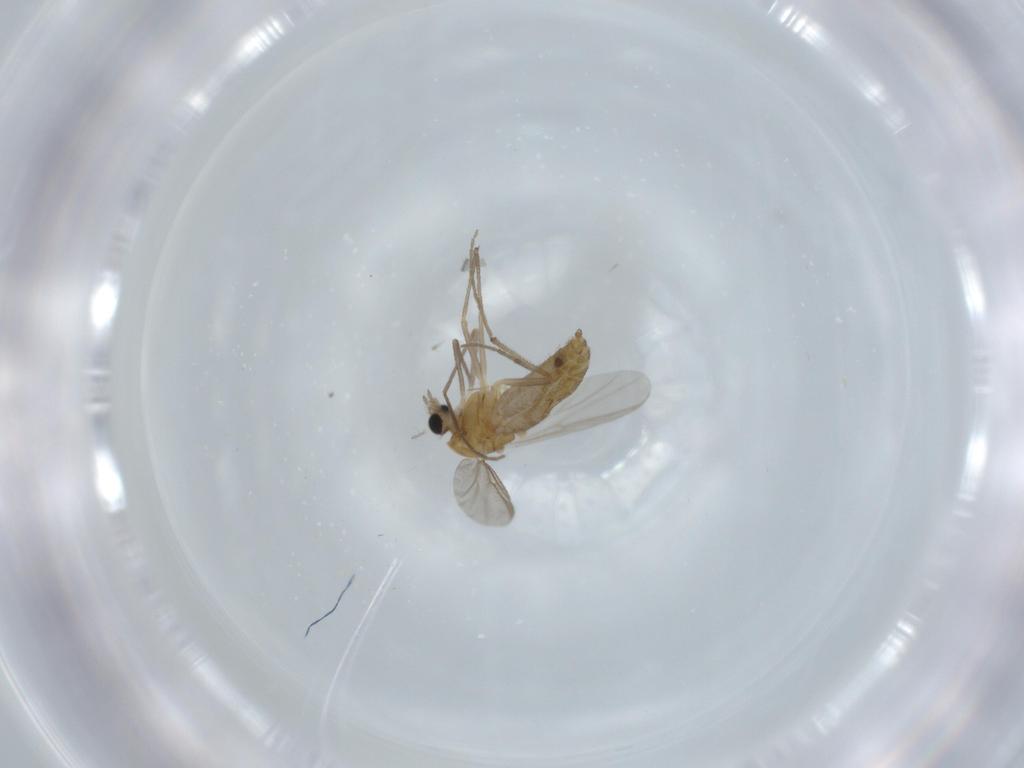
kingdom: Animalia
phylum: Arthropoda
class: Insecta
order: Diptera
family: Chironomidae
